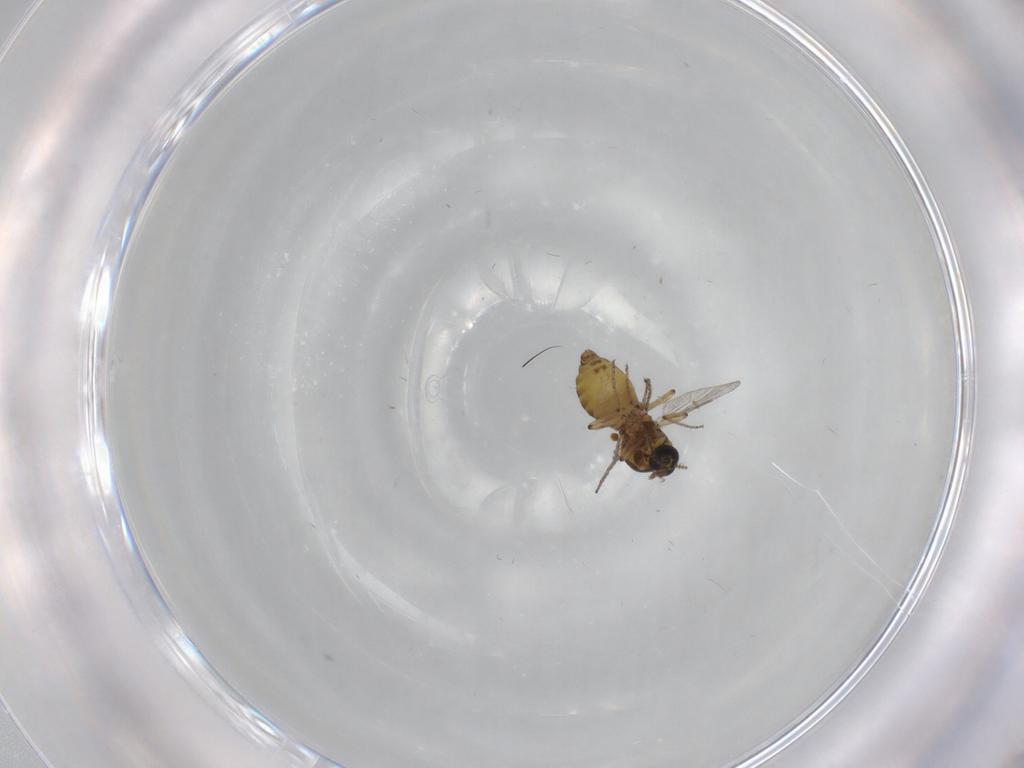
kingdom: Animalia
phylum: Arthropoda
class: Insecta
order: Diptera
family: Ceratopogonidae
